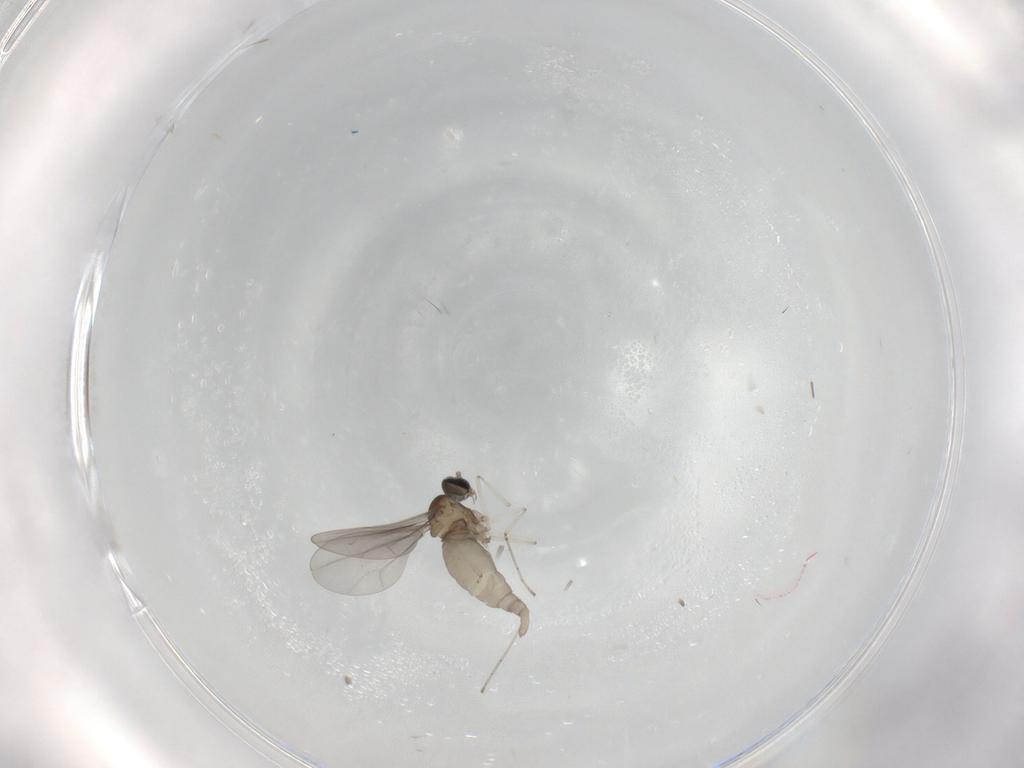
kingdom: Animalia
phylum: Arthropoda
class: Insecta
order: Diptera
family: Cecidomyiidae
